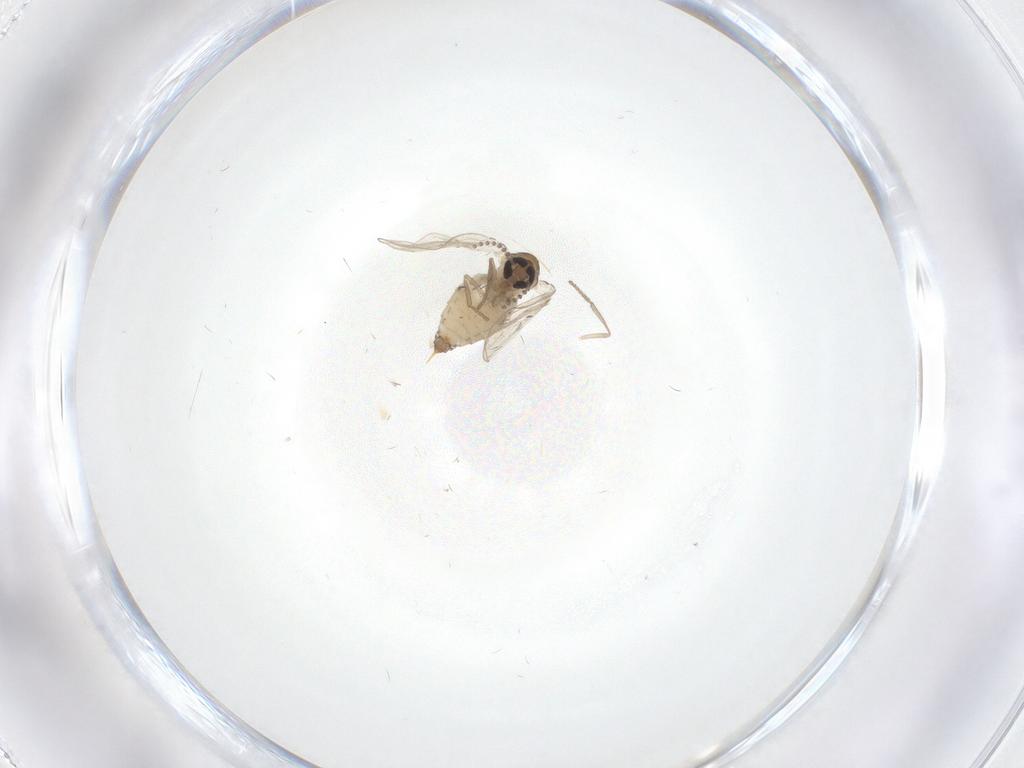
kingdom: Animalia
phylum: Arthropoda
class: Insecta
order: Diptera
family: Psychodidae
